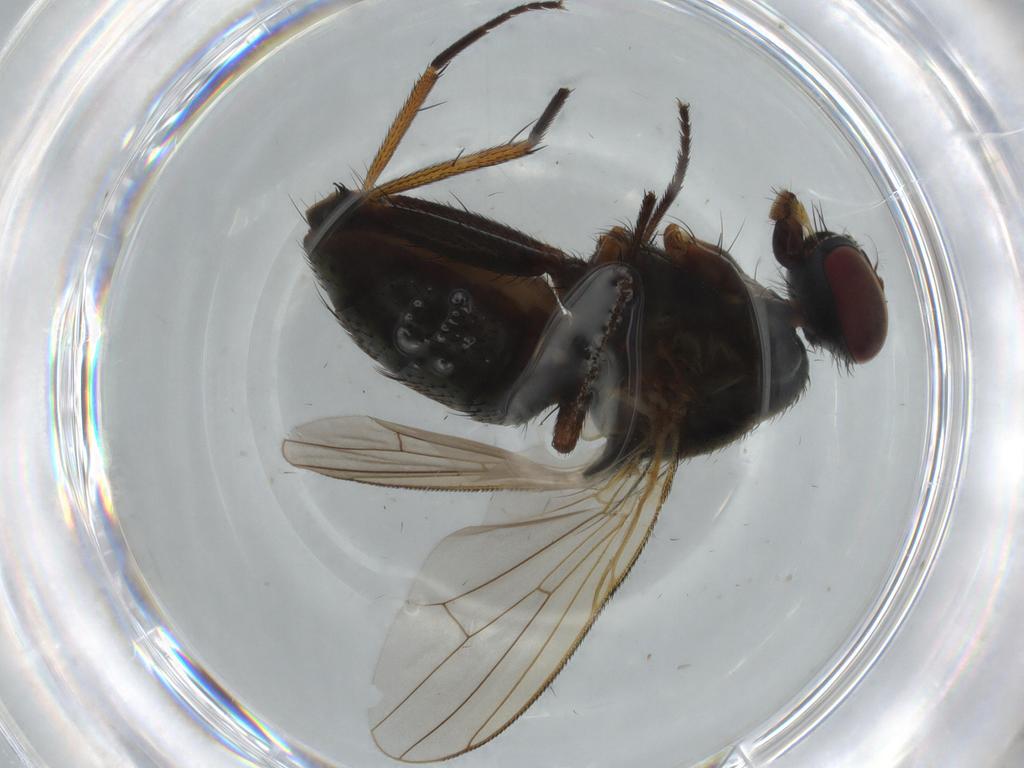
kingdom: Animalia
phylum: Arthropoda
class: Insecta
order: Diptera
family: Muscidae
